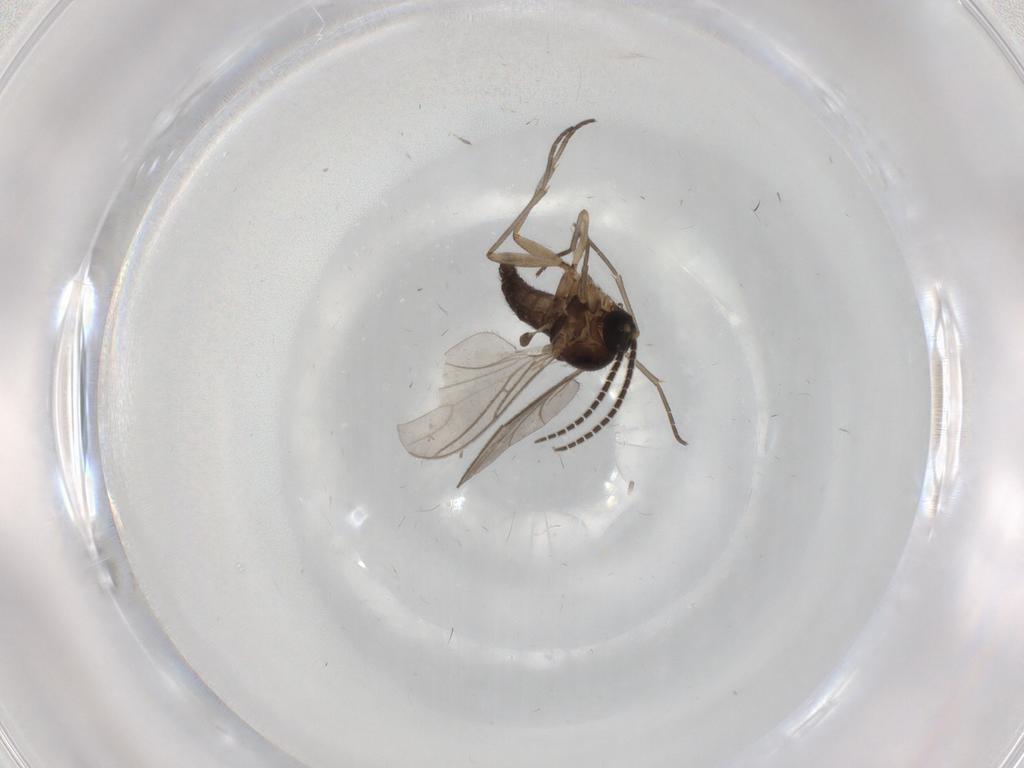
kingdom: Animalia
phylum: Arthropoda
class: Insecta
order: Diptera
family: Sciaridae
